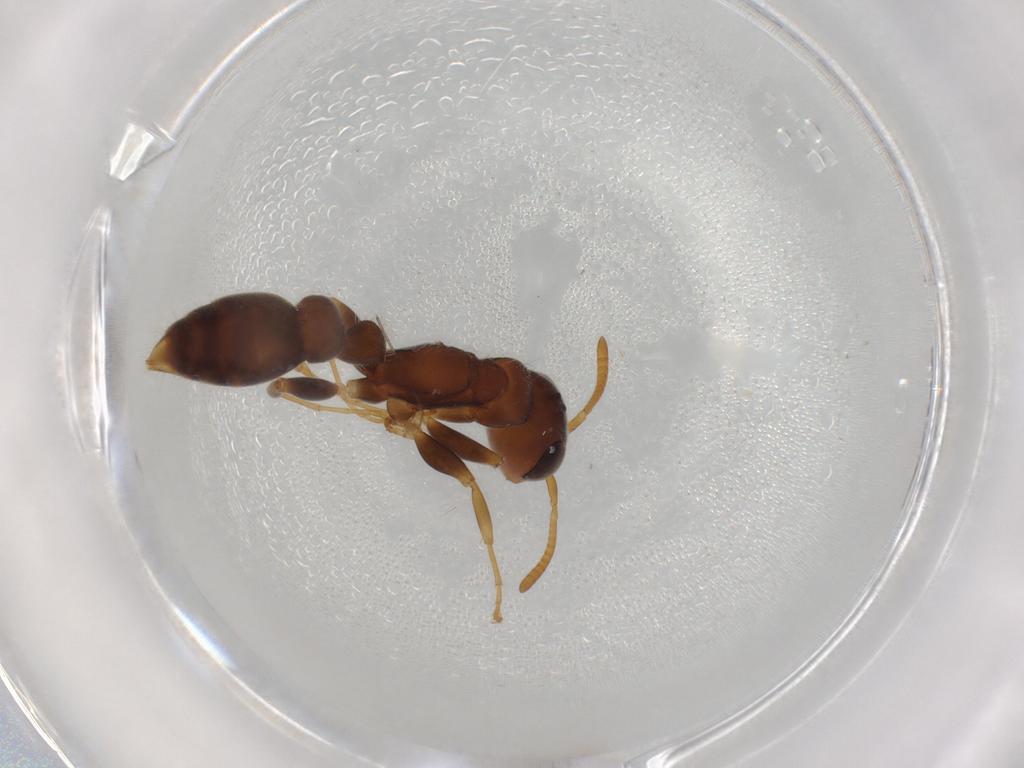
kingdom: Animalia
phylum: Arthropoda
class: Insecta
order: Hymenoptera
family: Formicidae
